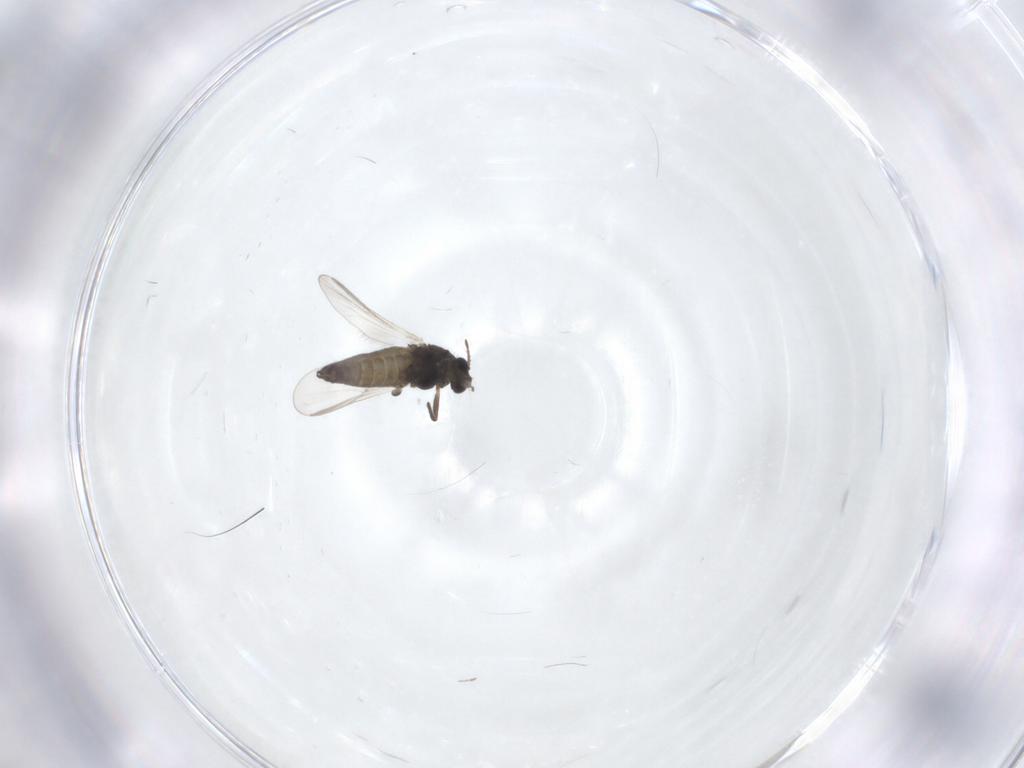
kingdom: Animalia
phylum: Arthropoda
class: Insecta
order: Diptera
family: Chironomidae
